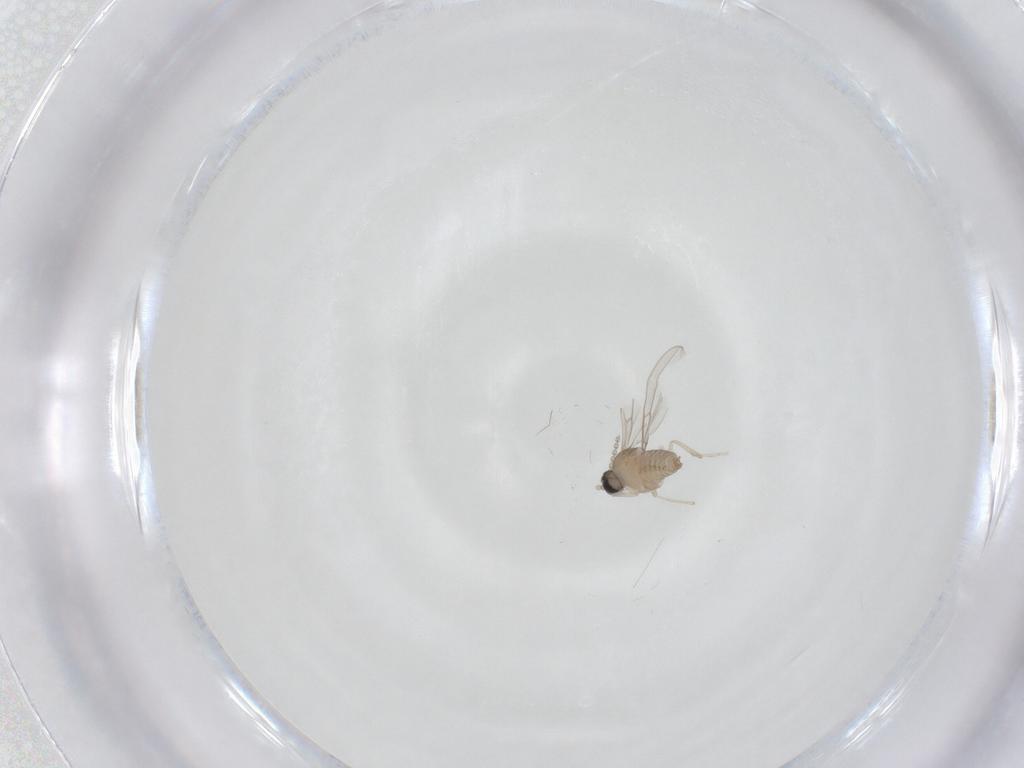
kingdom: Animalia
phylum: Arthropoda
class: Insecta
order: Diptera
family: Cecidomyiidae
